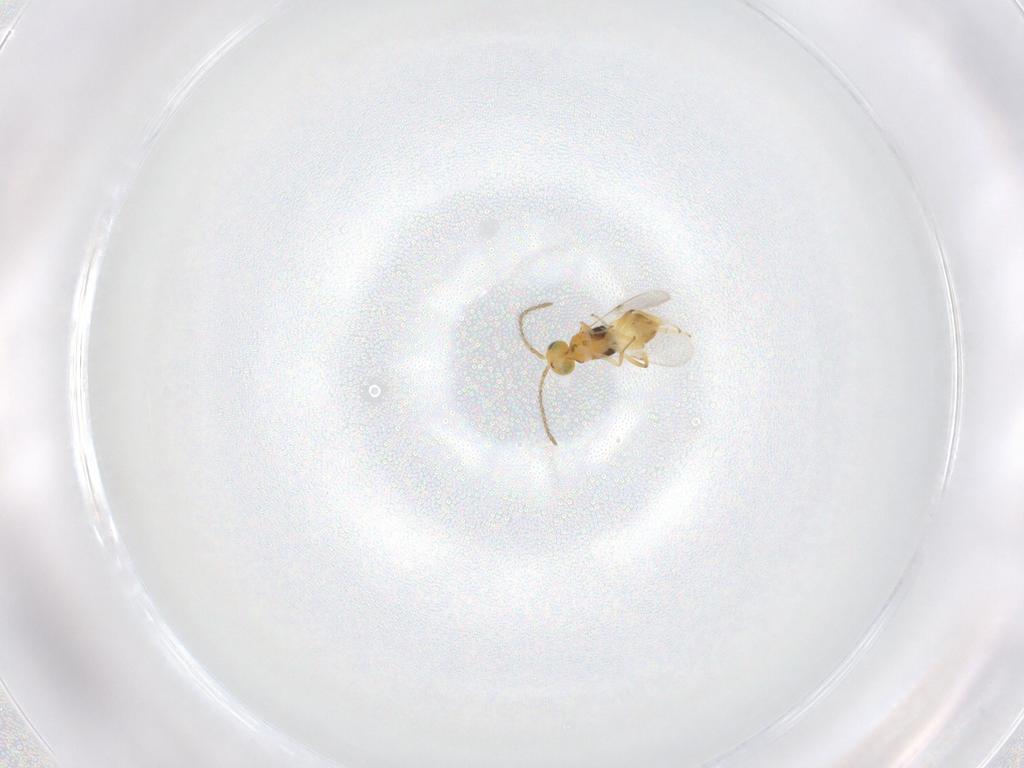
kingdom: Animalia
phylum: Arthropoda
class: Insecta
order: Hymenoptera
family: Encyrtidae
